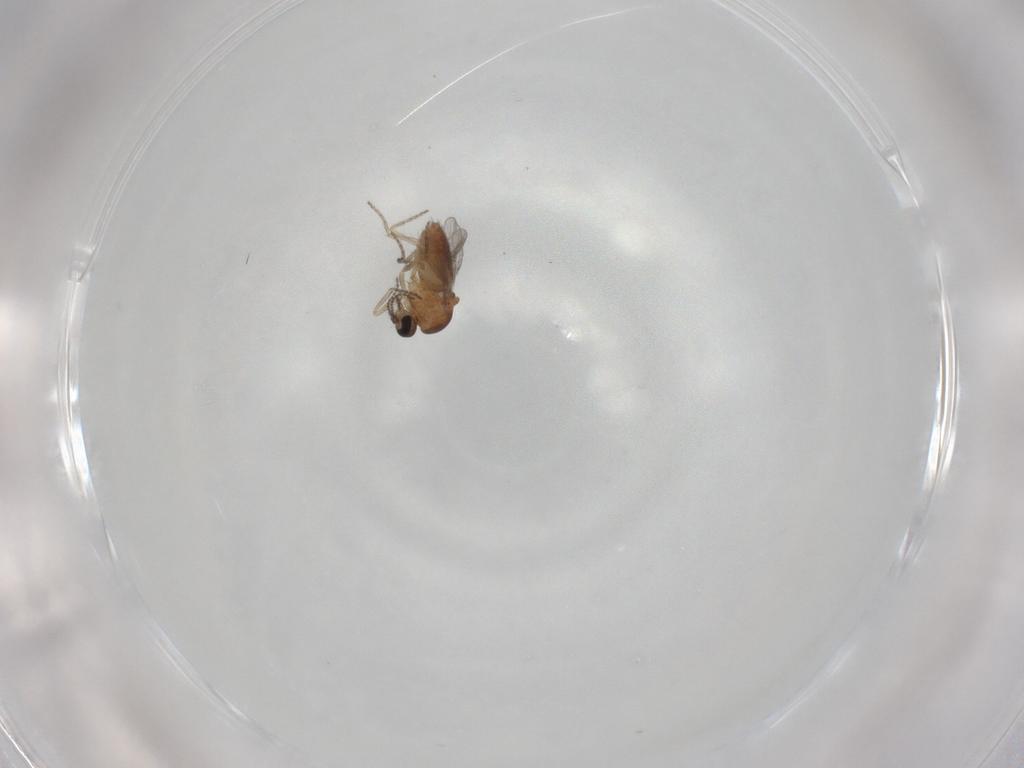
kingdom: Animalia
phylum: Arthropoda
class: Insecta
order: Diptera
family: Ceratopogonidae
